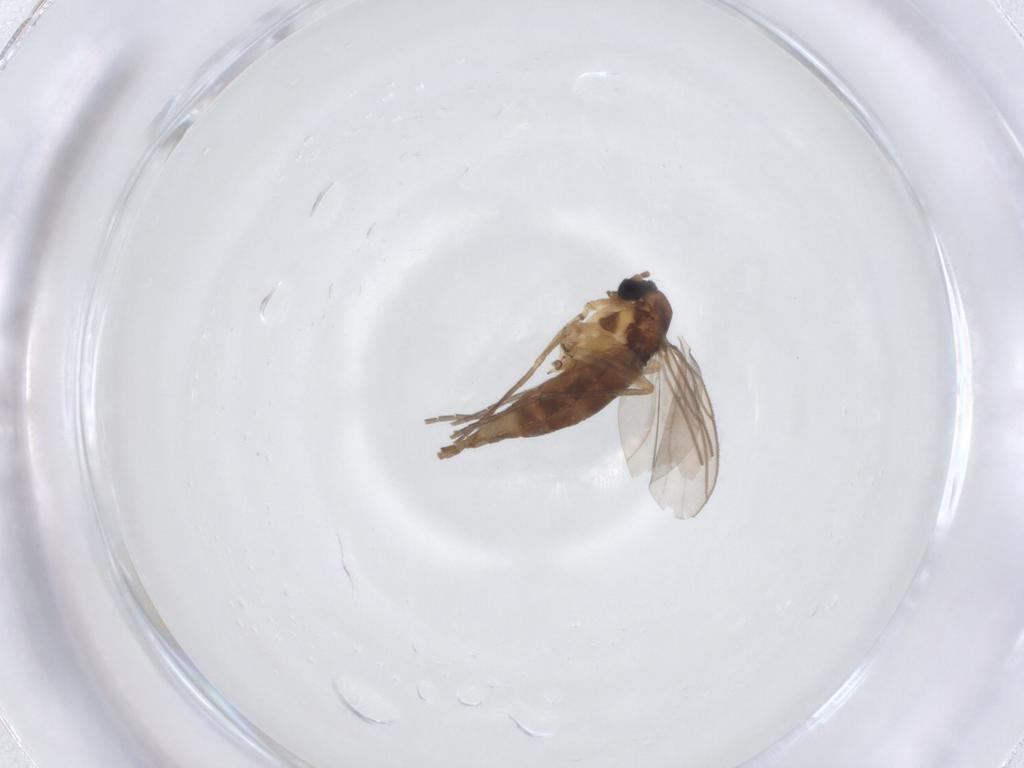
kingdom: Animalia
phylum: Arthropoda
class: Insecta
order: Diptera
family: Sciaridae
